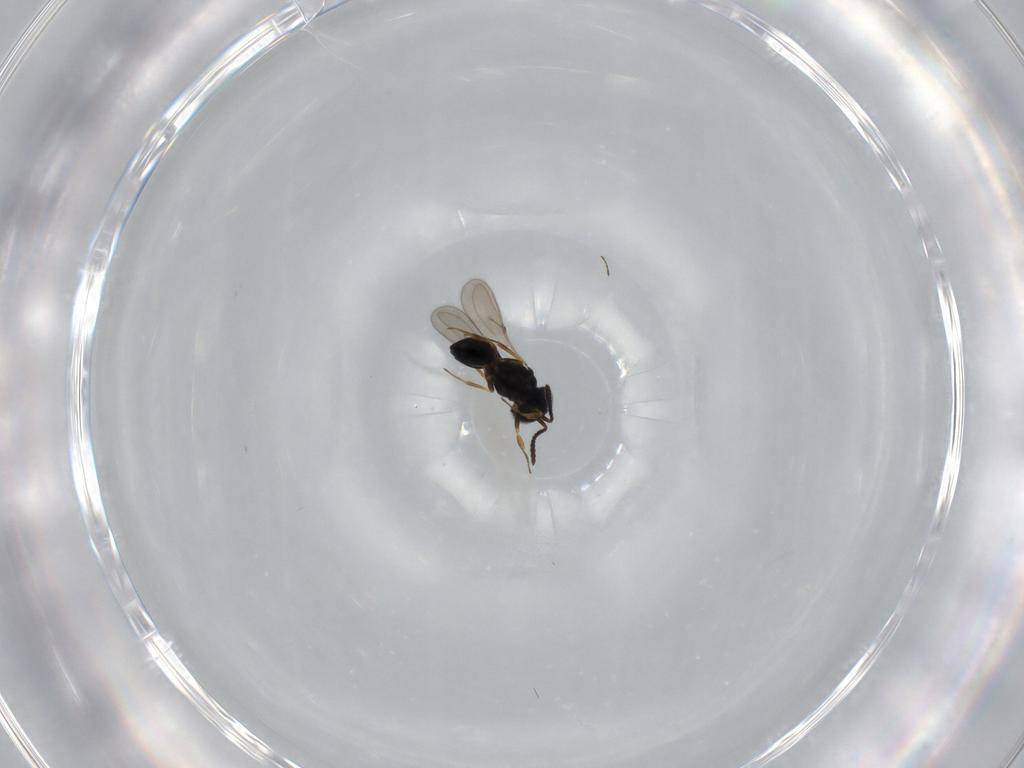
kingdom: Animalia
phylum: Arthropoda
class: Insecta
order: Hymenoptera
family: Scelionidae
